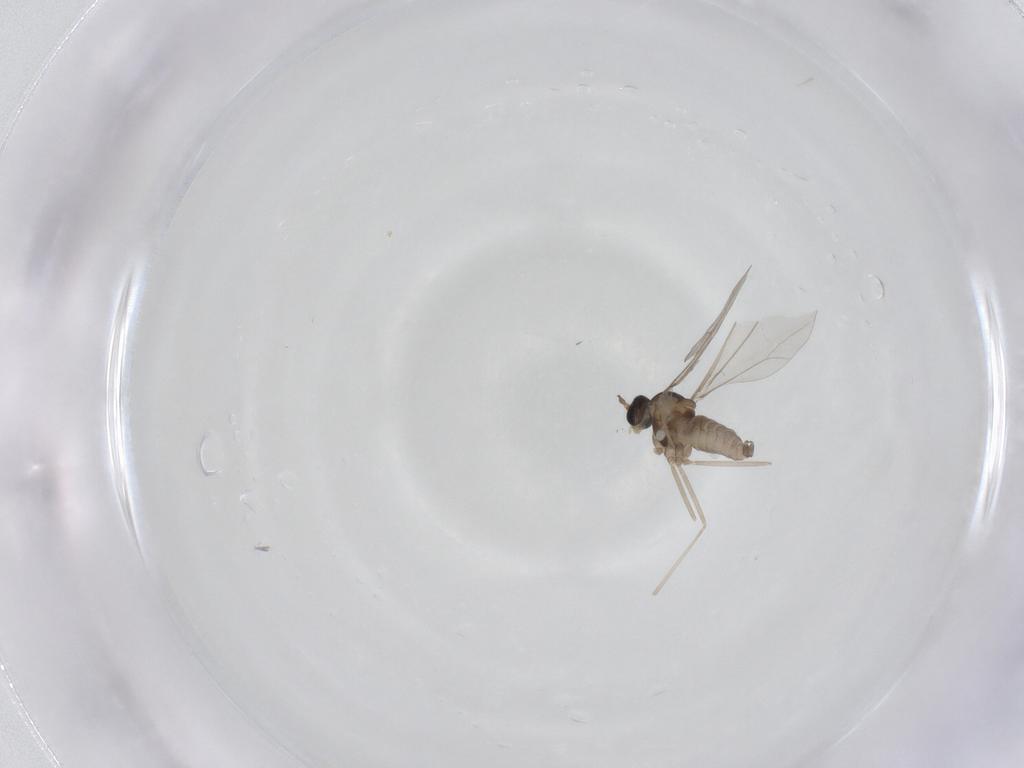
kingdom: Animalia
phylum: Arthropoda
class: Insecta
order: Diptera
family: Cecidomyiidae
